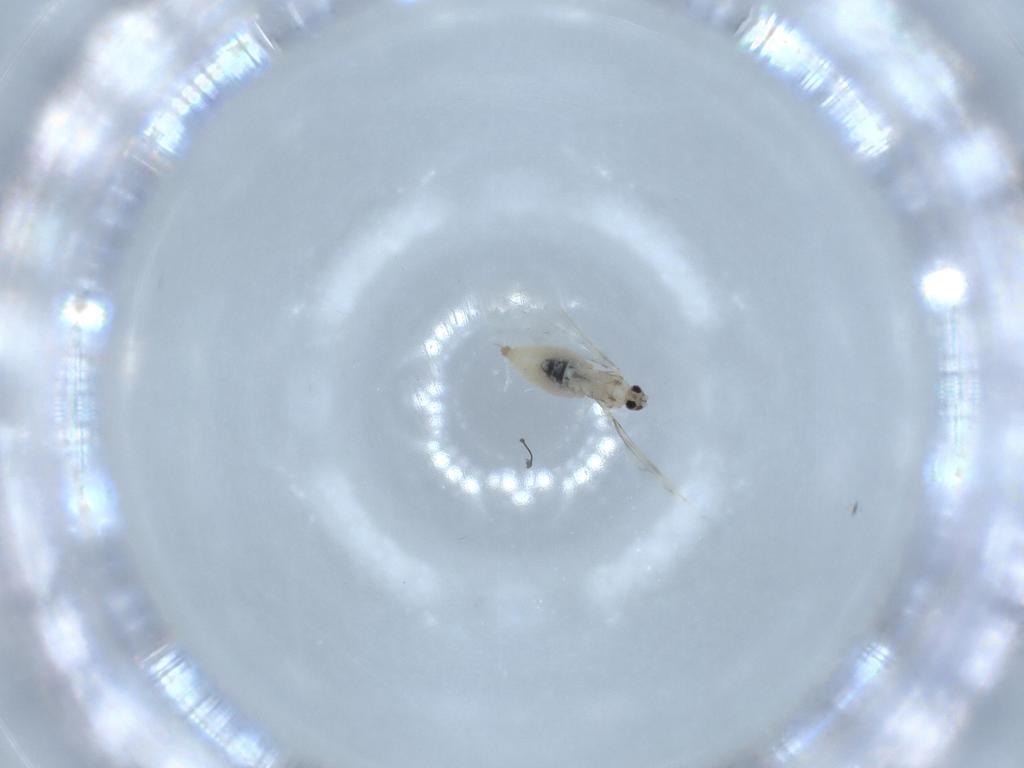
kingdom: Animalia
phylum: Arthropoda
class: Insecta
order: Diptera
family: Cecidomyiidae
